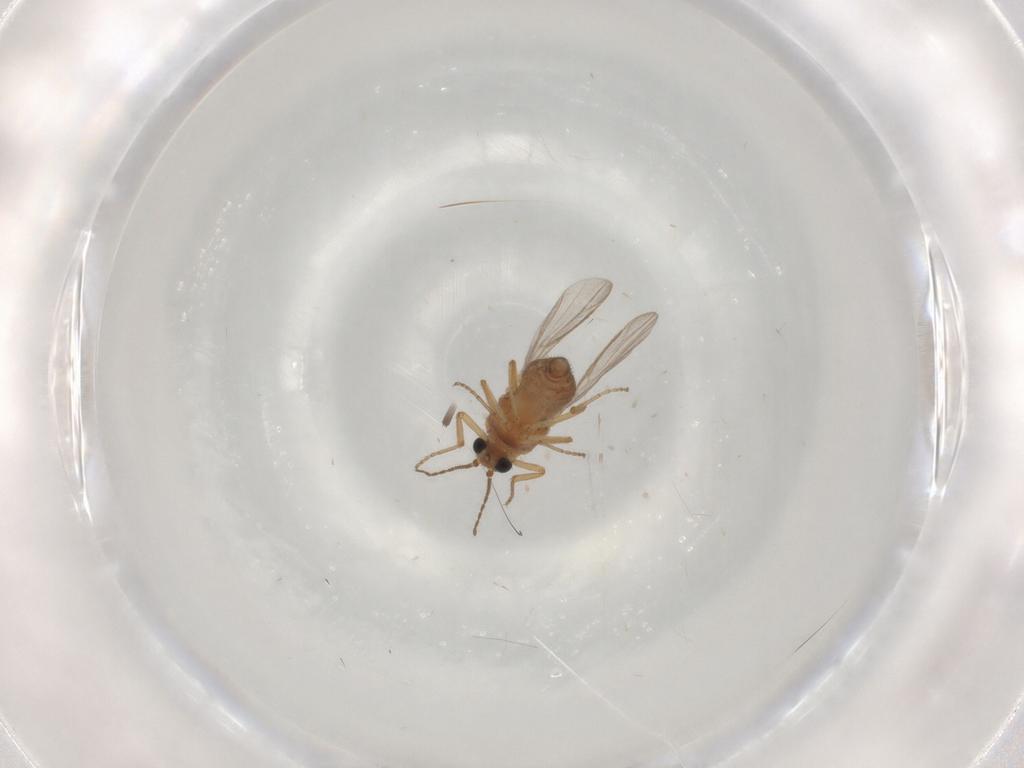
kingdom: Animalia
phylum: Arthropoda
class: Insecta
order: Diptera
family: Ceratopogonidae
